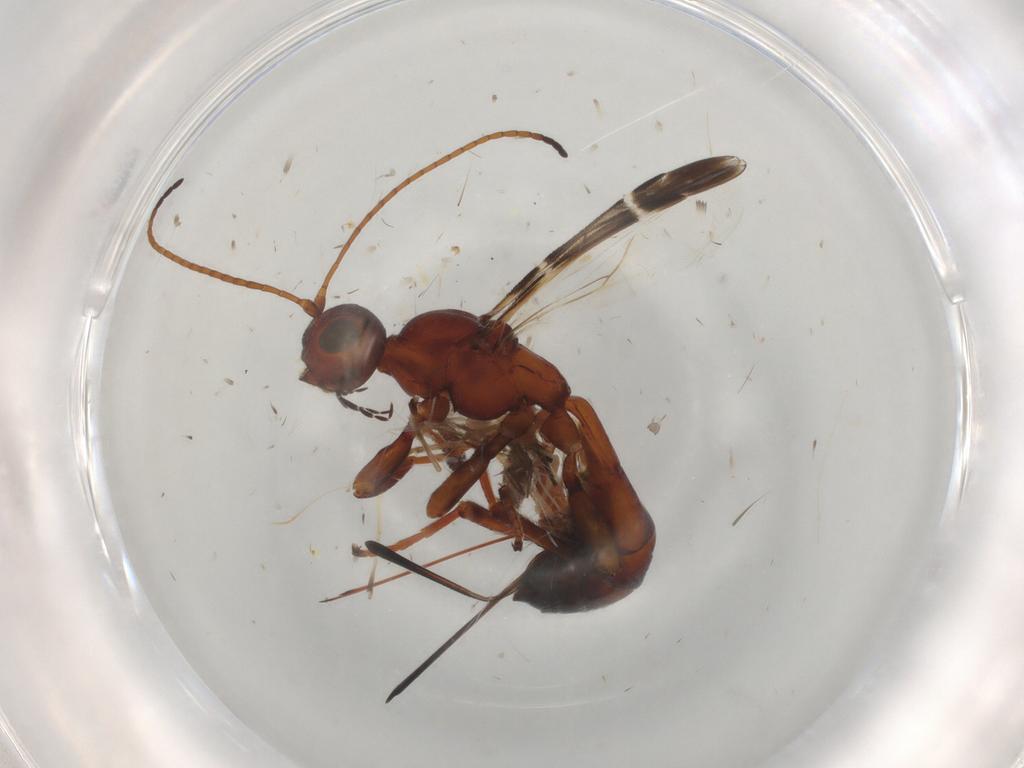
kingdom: Animalia
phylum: Arthropoda
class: Insecta
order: Hymenoptera
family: Braconidae
